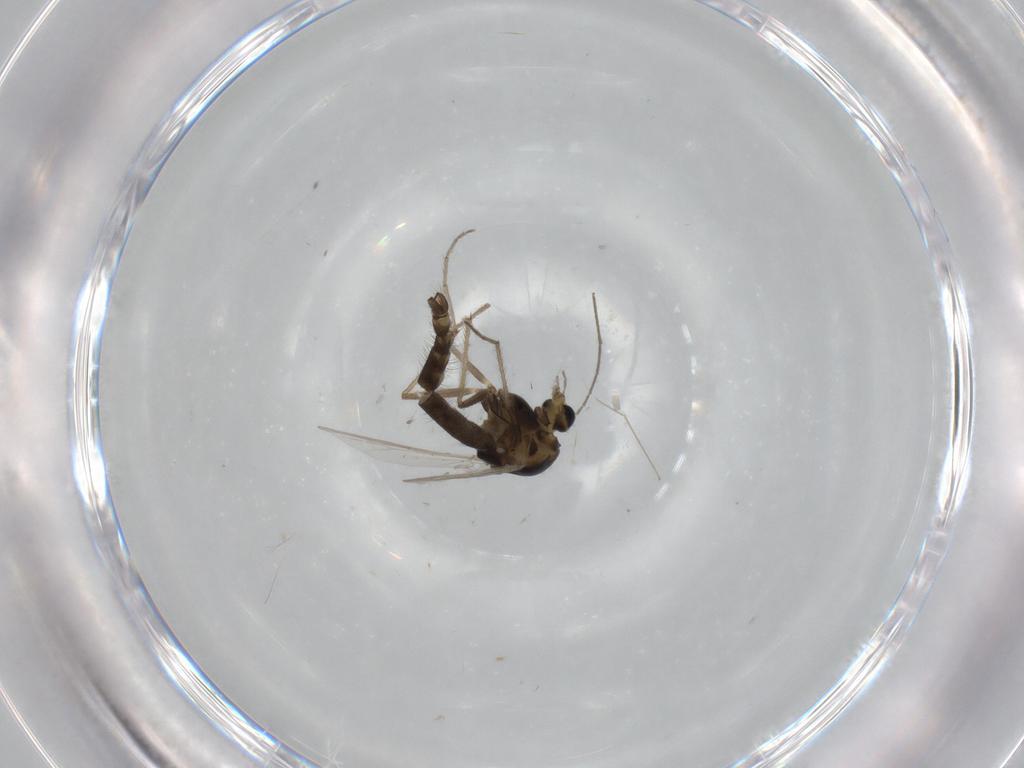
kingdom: Animalia
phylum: Arthropoda
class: Insecta
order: Diptera
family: Chironomidae
